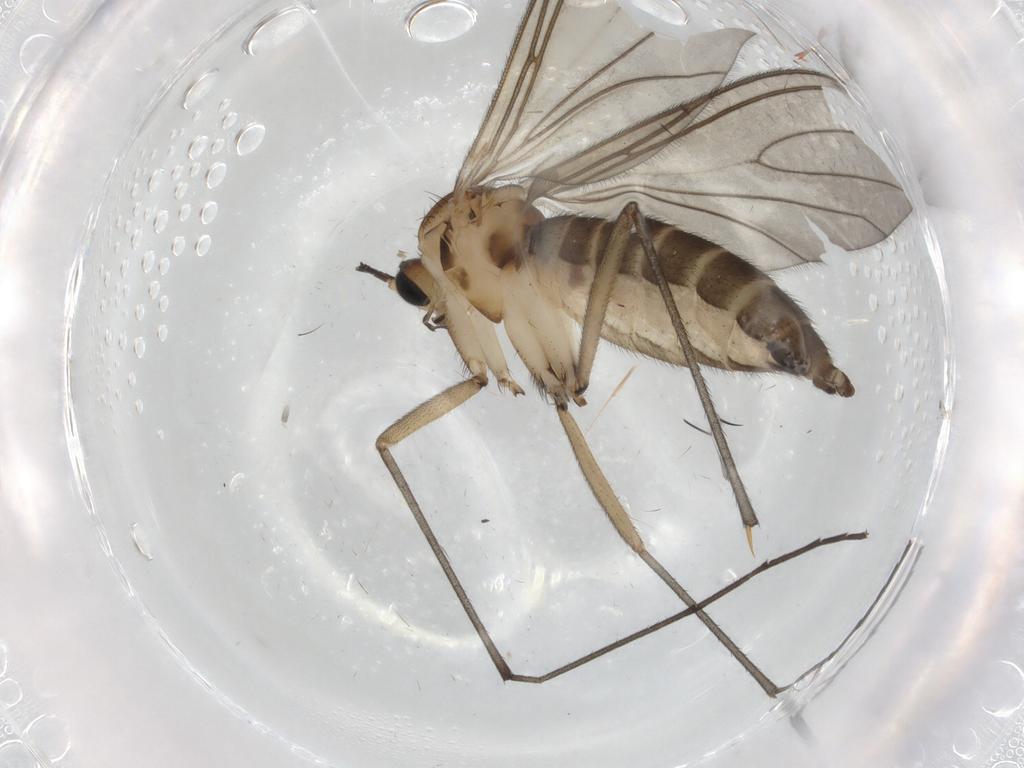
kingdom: Animalia
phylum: Arthropoda
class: Insecta
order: Diptera
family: Sciaridae
